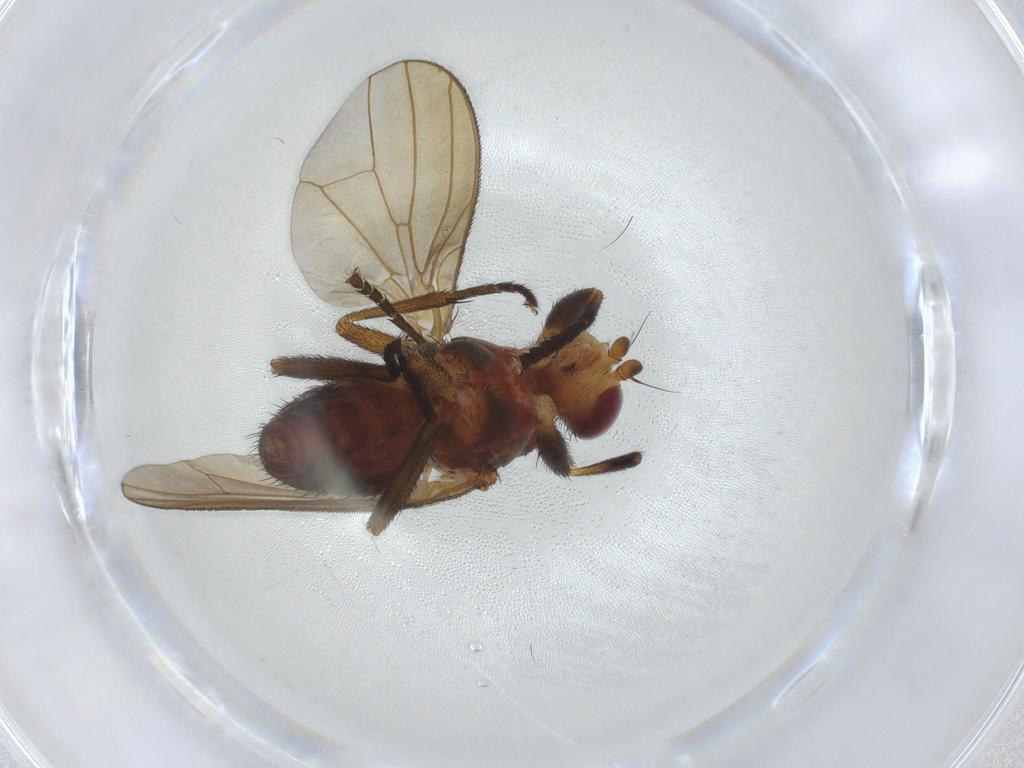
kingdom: Animalia
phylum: Arthropoda
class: Insecta
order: Diptera
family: Sciomyzidae
